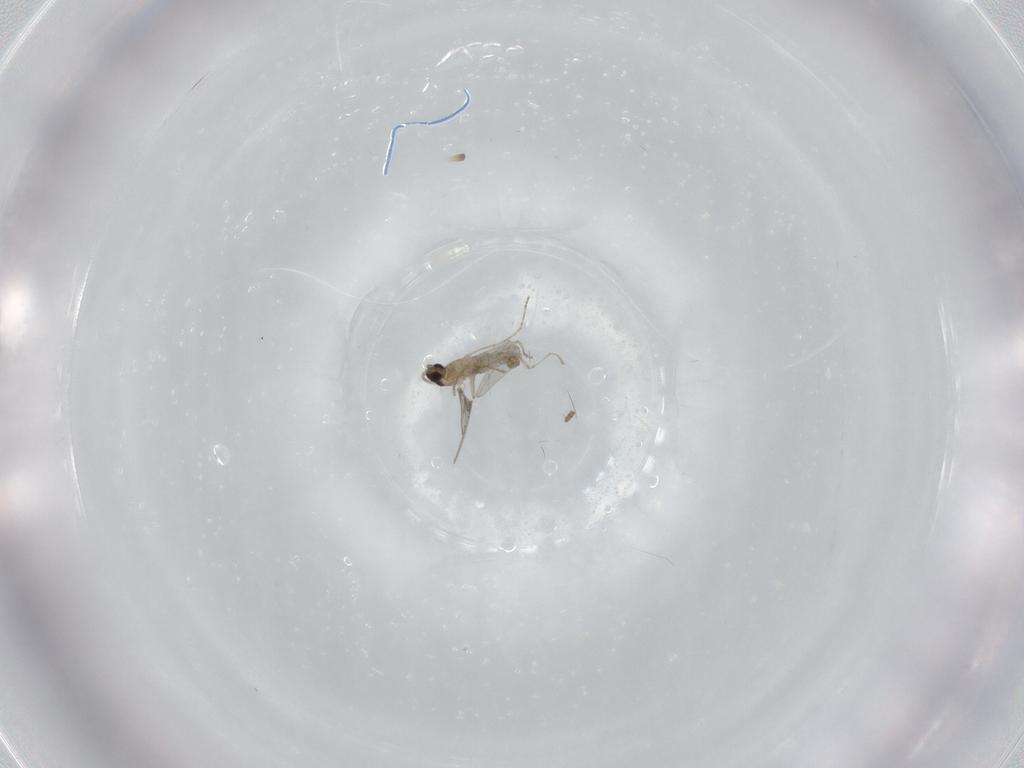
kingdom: Animalia
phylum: Arthropoda
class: Insecta
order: Diptera
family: Cecidomyiidae
